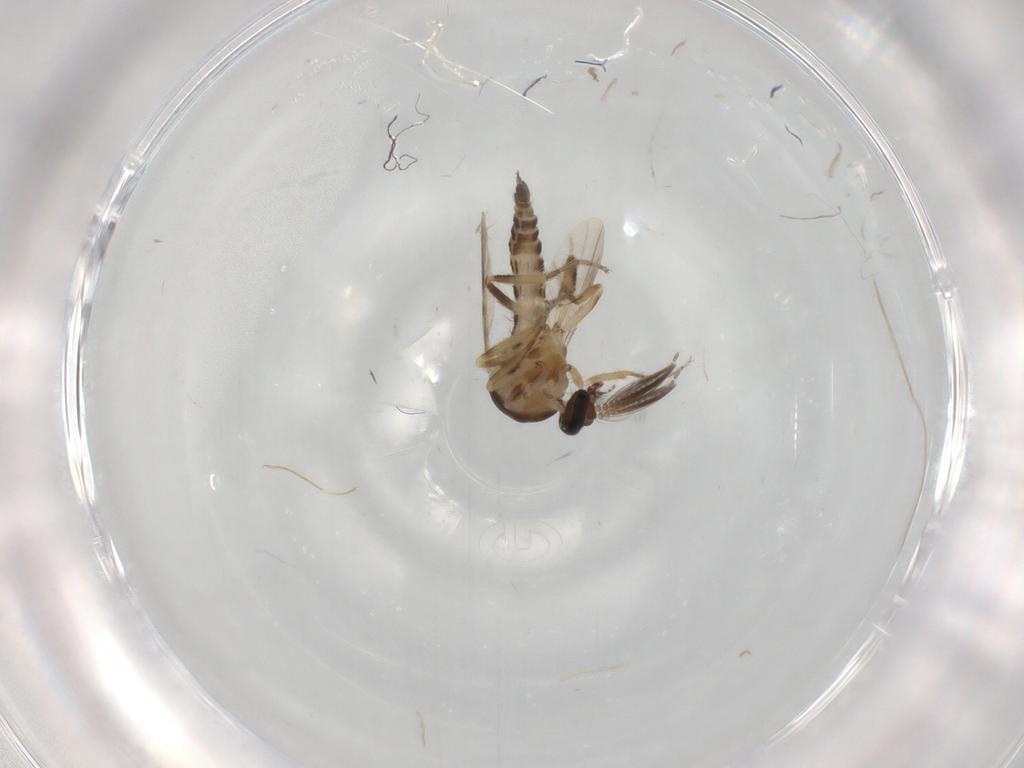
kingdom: Animalia
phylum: Arthropoda
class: Insecta
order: Diptera
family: Ceratopogonidae
